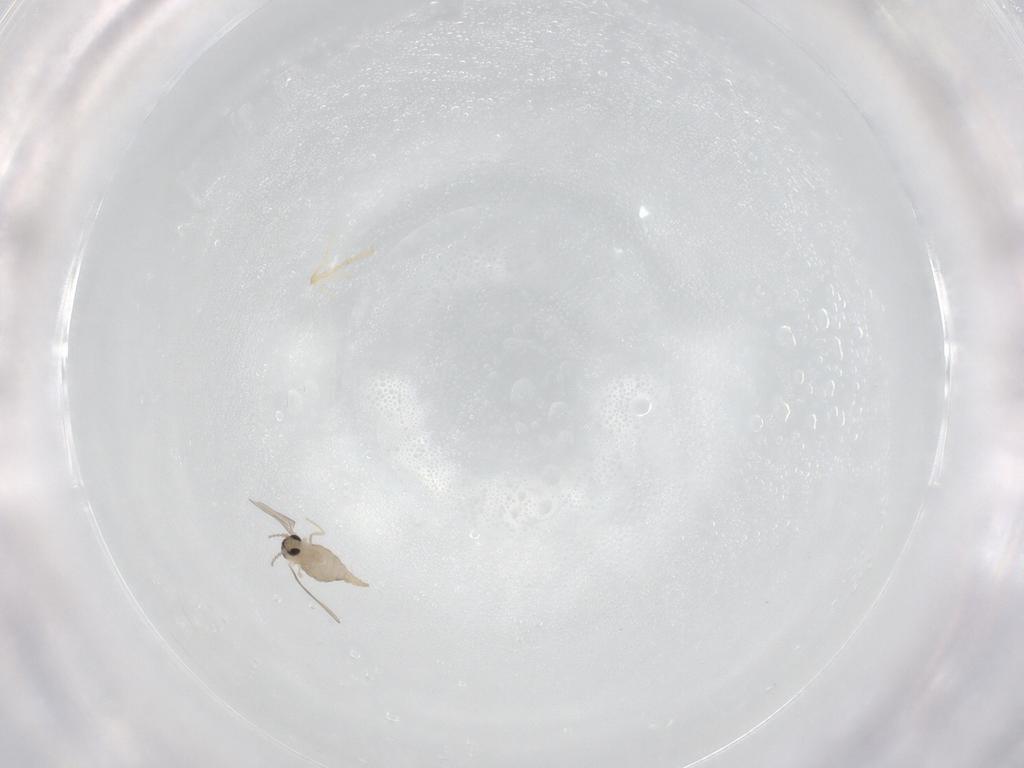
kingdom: Animalia
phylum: Arthropoda
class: Insecta
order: Diptera
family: Cecidomyiidae
